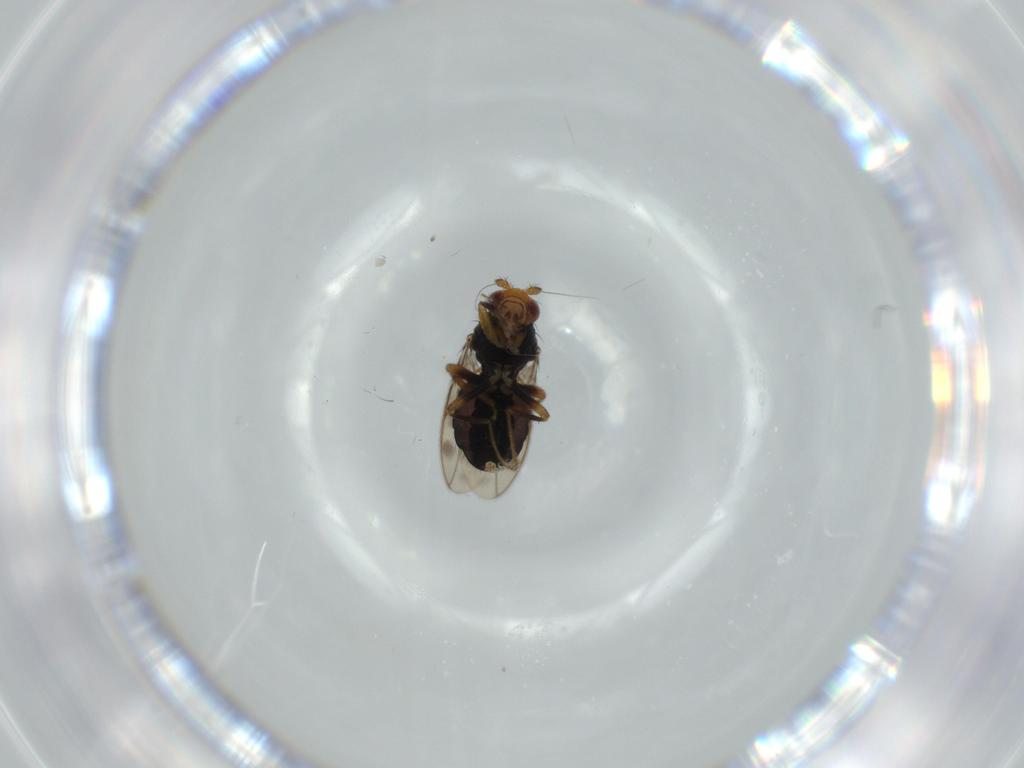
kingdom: Animalia
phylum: Arthropoda
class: Insecta
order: Diptera
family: Sphaeroceridae
